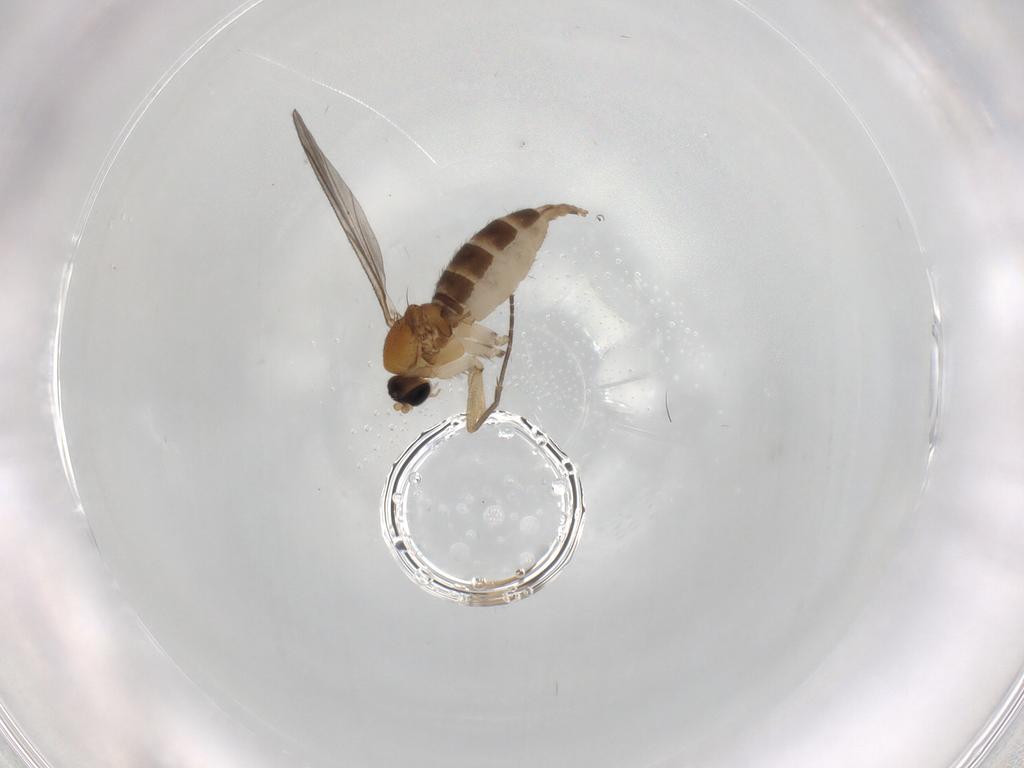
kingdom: Animalia
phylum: Arthropoda
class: Insecta
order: Diptera
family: Sciaridae
